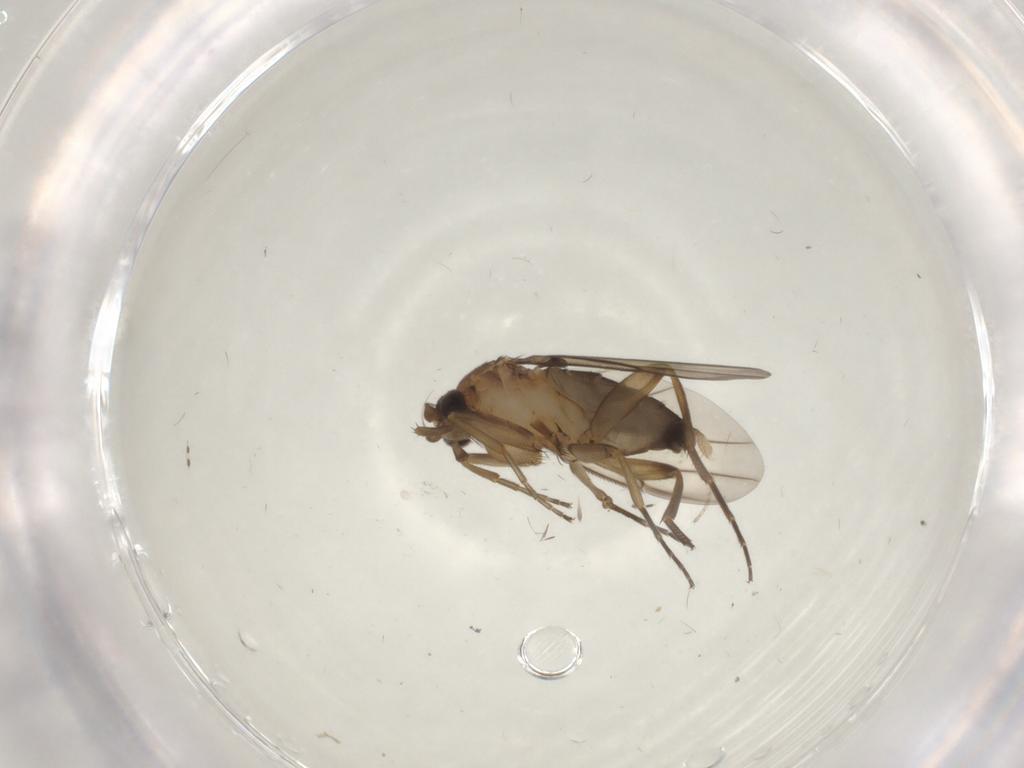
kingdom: Animalia
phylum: Arthropoda
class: Insecta
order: Diptera
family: Phoridae
